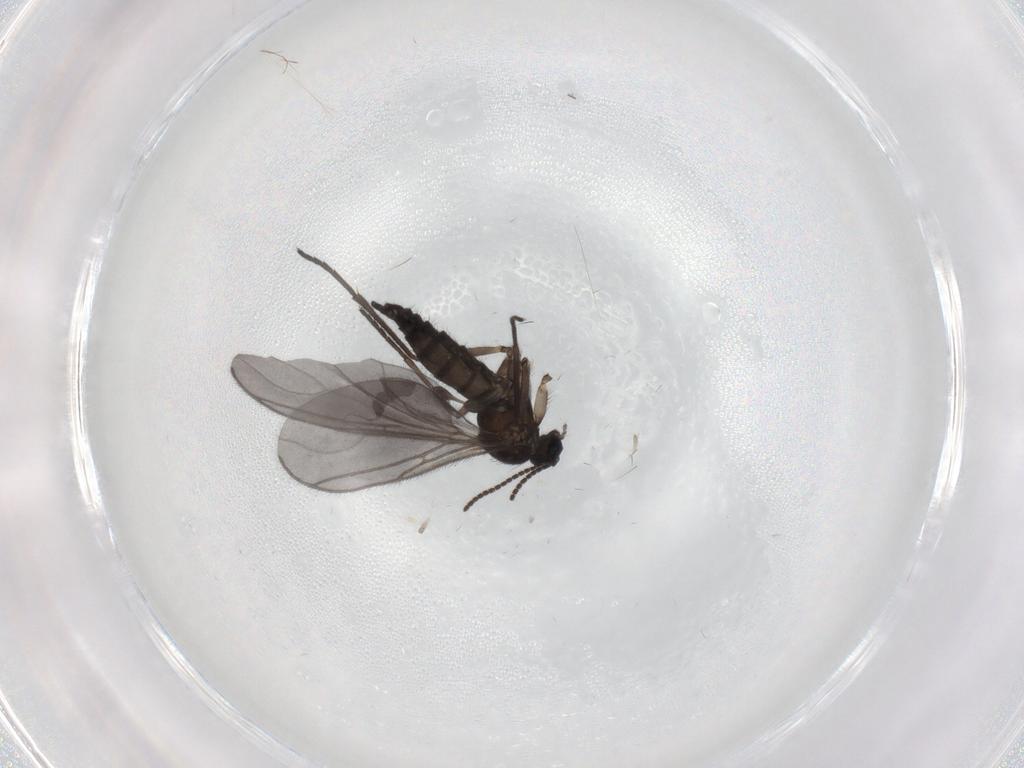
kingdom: Animalia
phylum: Arthropoda
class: Insecta
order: Diptera
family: Sciaridae
